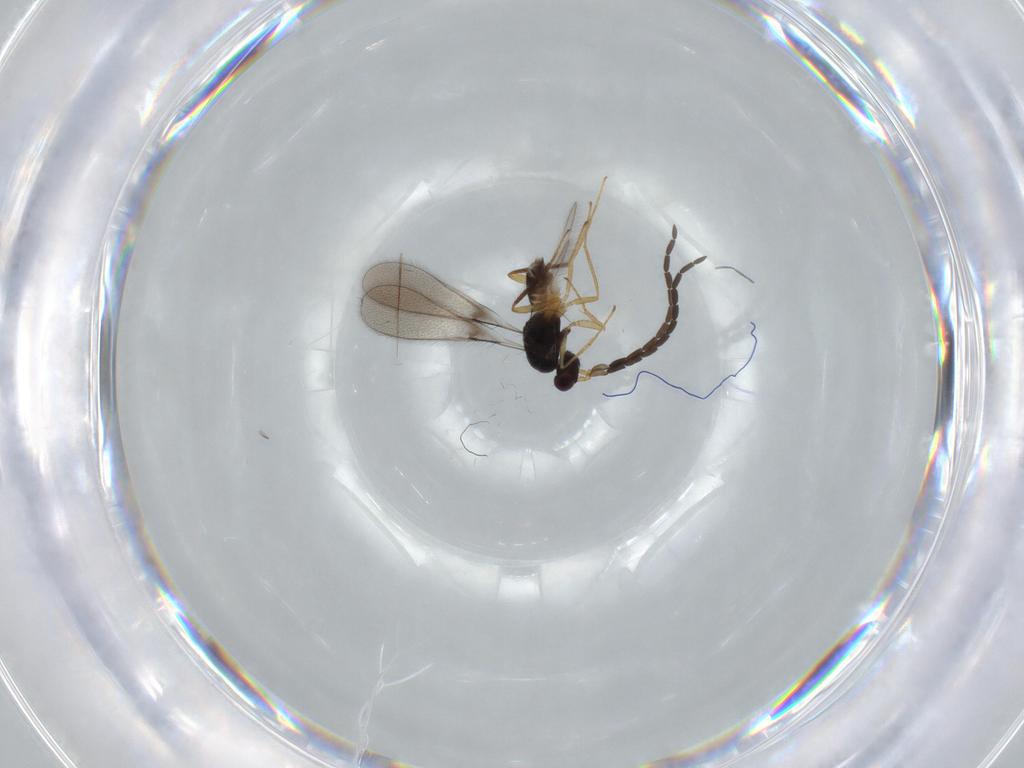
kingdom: Animalia
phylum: Arthropoda
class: Insecta
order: Hymenoptera
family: Mymaridae
